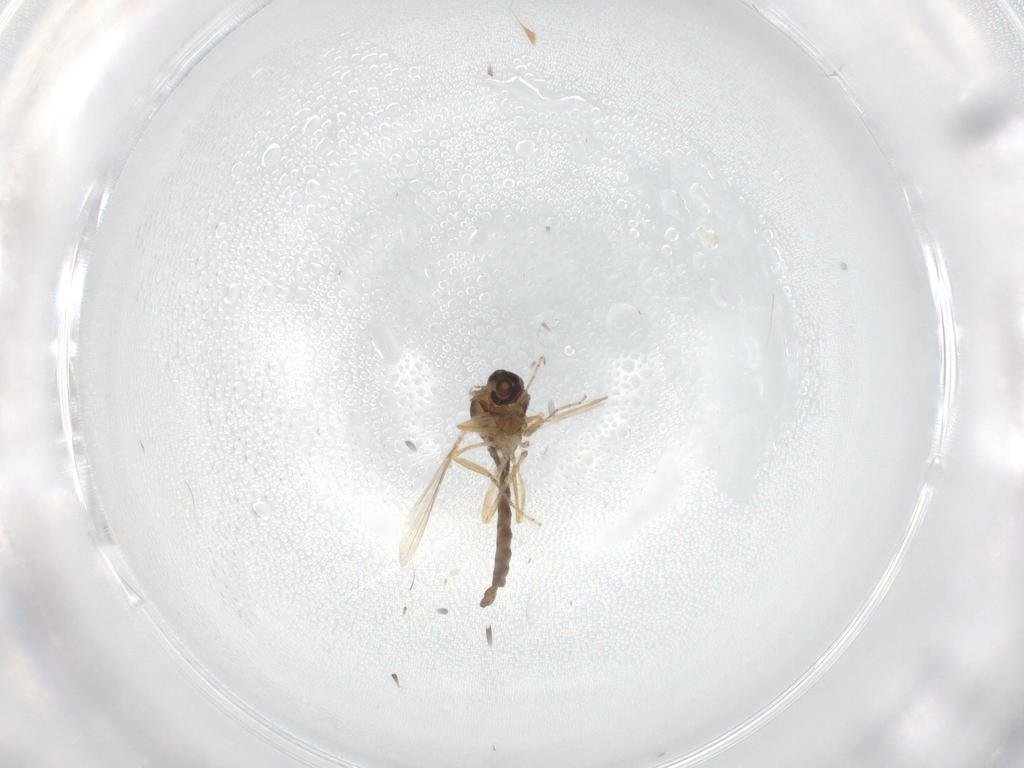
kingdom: Animalia
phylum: Arthropoda
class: Insecta
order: Diptera
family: Ceratopogonidae
